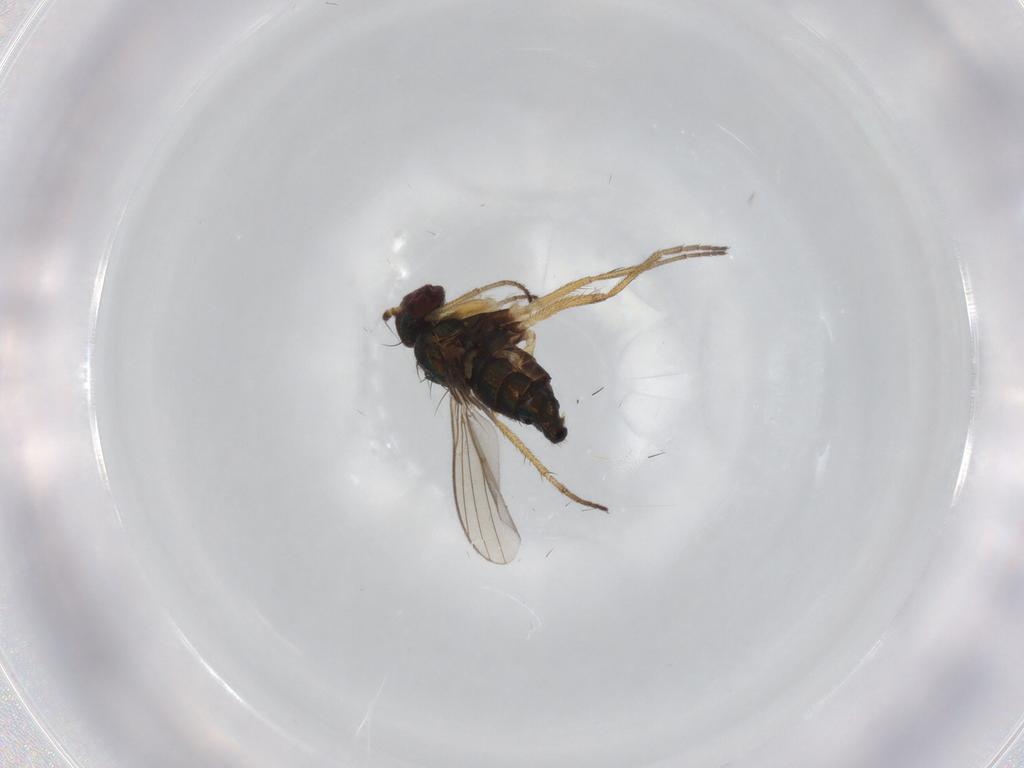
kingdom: Animalia
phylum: Arthropoda
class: Insecta
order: Diptera
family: Dolichopodidae
